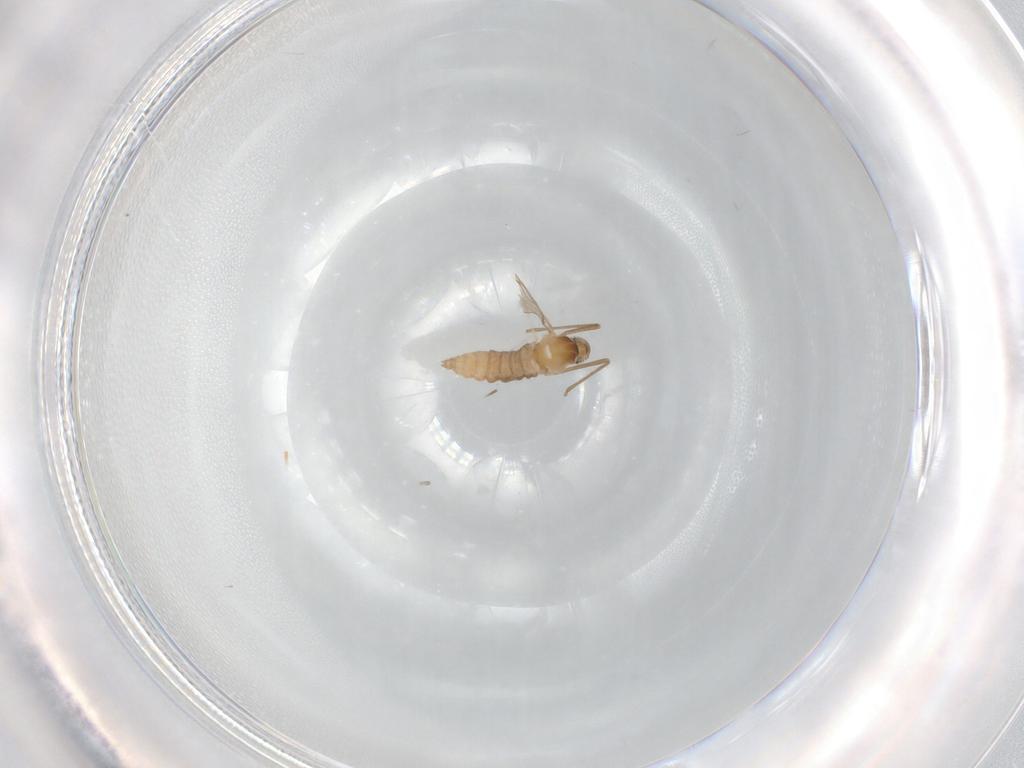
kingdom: Animalia
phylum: Arthropoda
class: Insecta
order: Diptera
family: Cecidomyiidae
